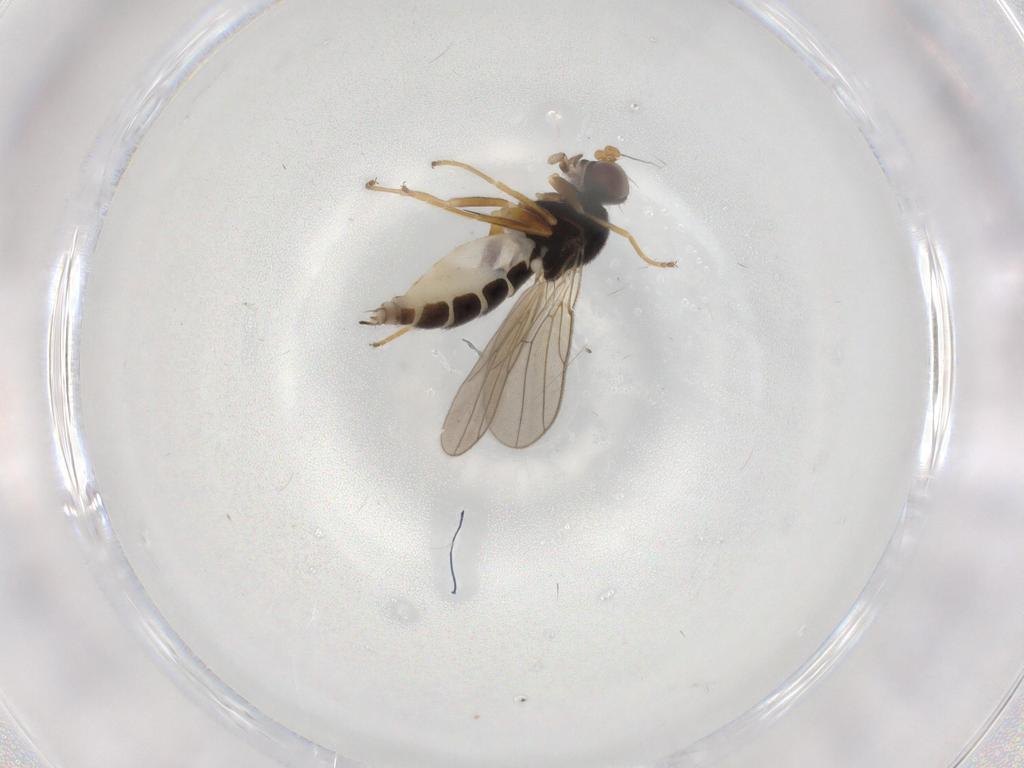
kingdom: Animalia
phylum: Arthropoda
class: Insecta
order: Diptera
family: Chloropidae
